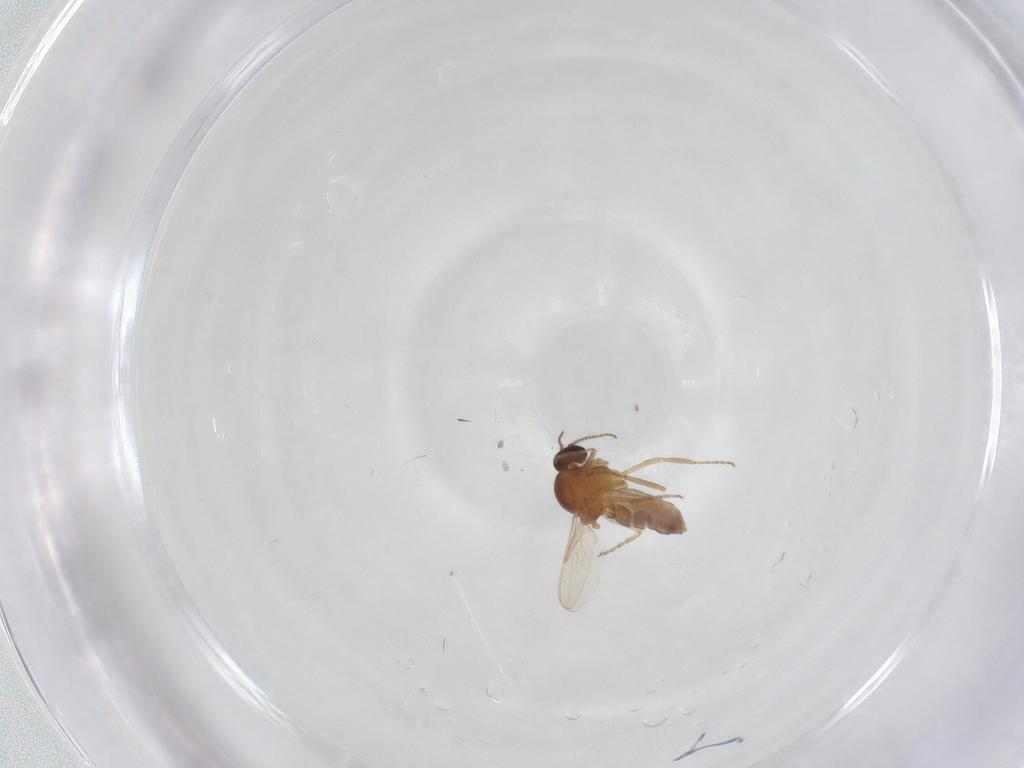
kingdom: Animalia
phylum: Arthropoda
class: Insecta
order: Diptera
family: Ceratopogonidae
